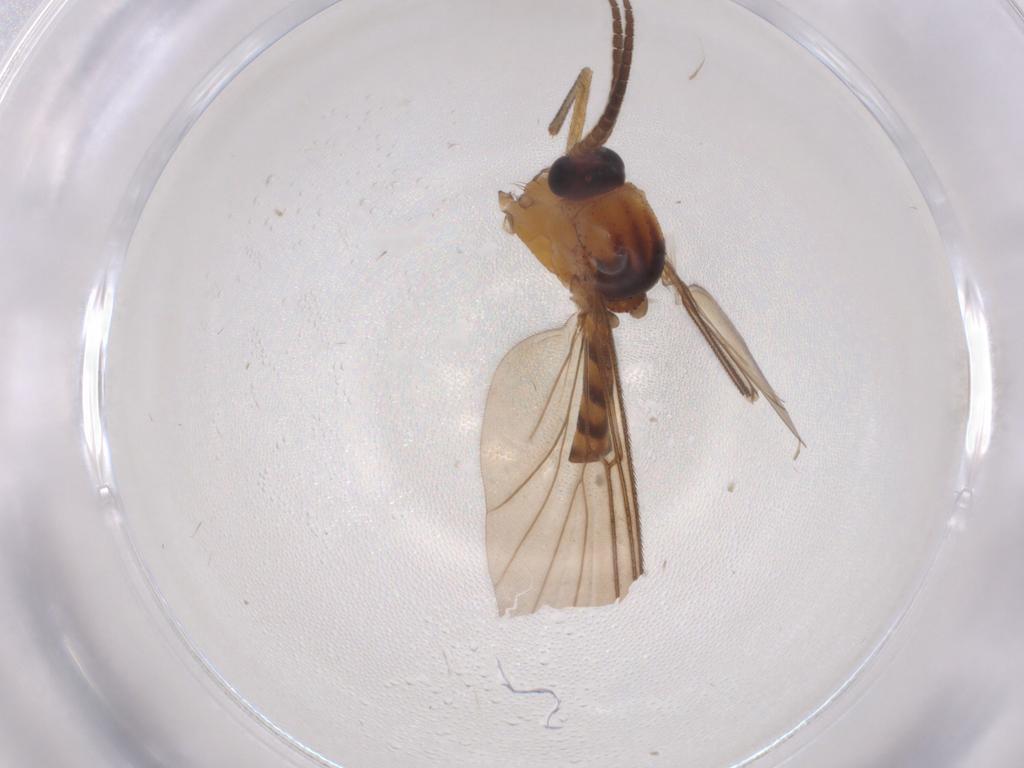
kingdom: Animalia
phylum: Arthropoda
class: Insecta
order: Diptera
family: Mycetophilidae
